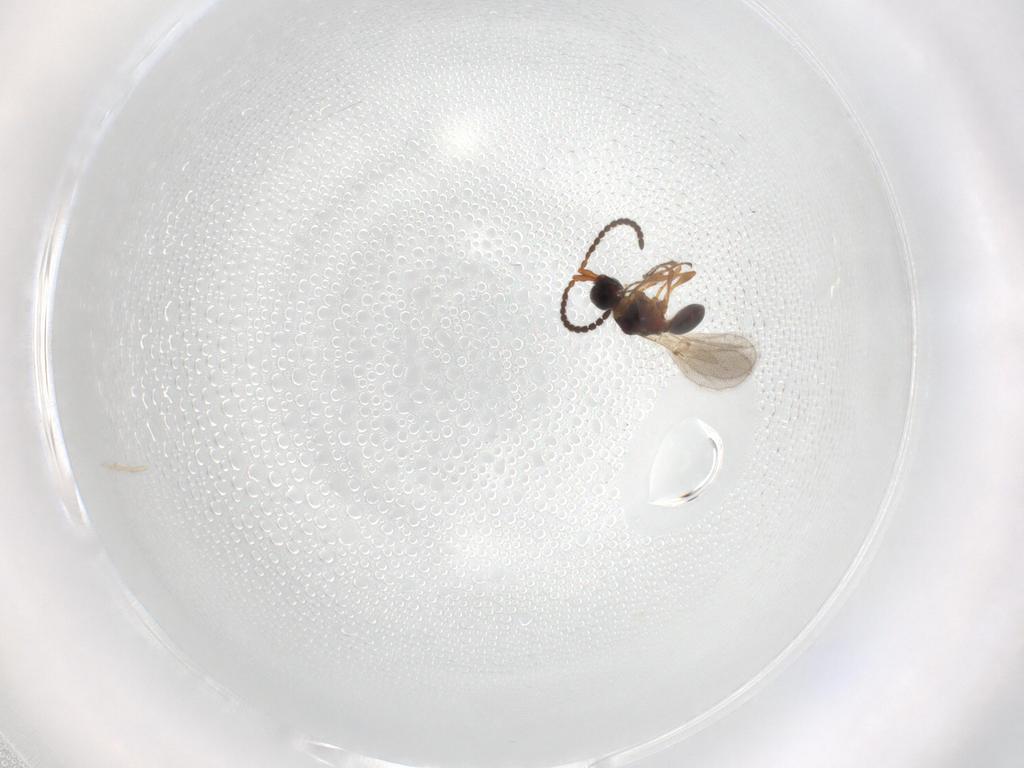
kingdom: Animalia
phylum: Arthropoda
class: Insecta
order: Hymenoptera
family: Diapriidae
